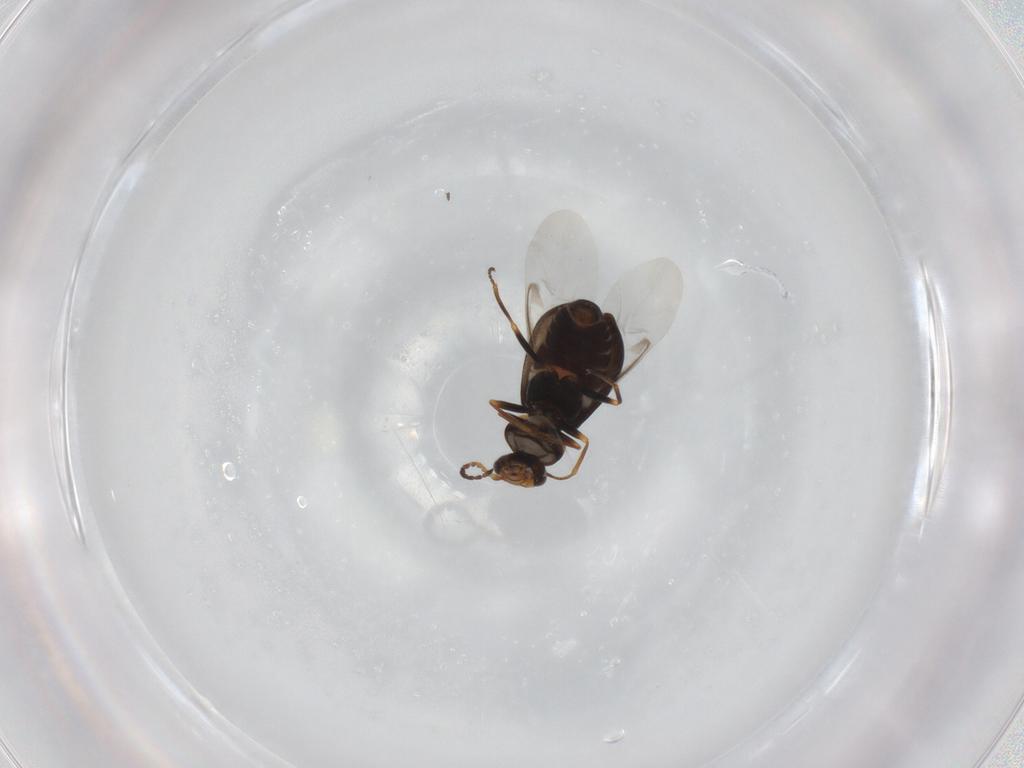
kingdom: Animalia
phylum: Arthropoda
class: Insecta
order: Coleoptera
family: Melyridae
